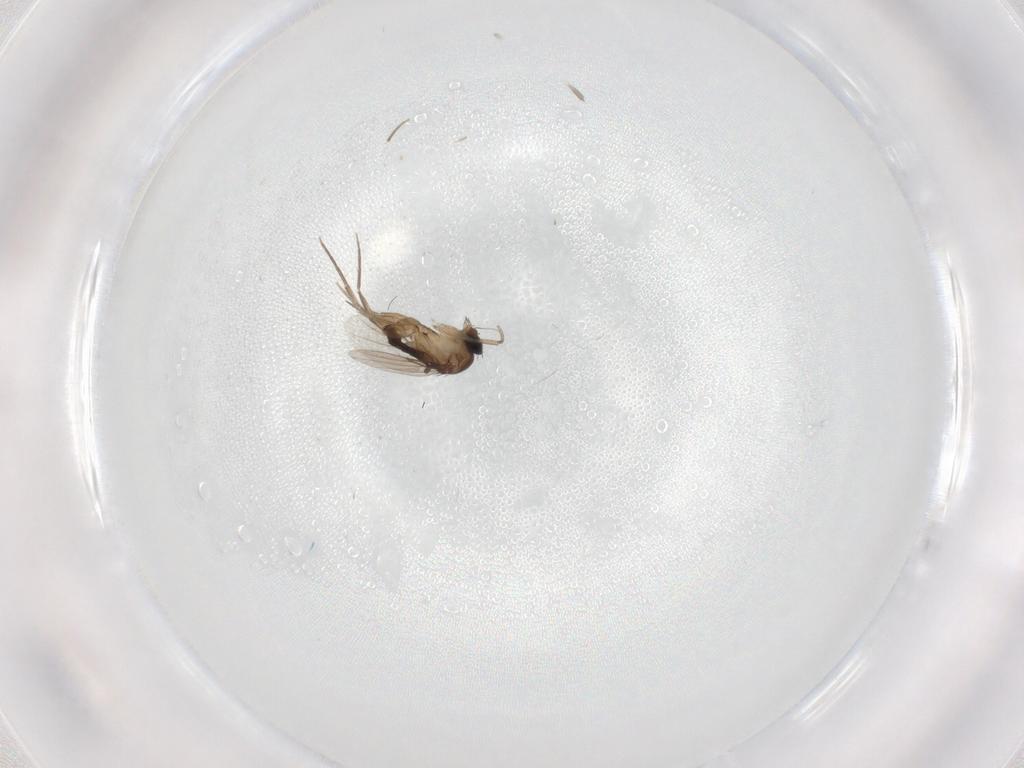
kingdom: Animalia
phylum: Arthropoda
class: Insecta
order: Diptera
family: Phoridae
